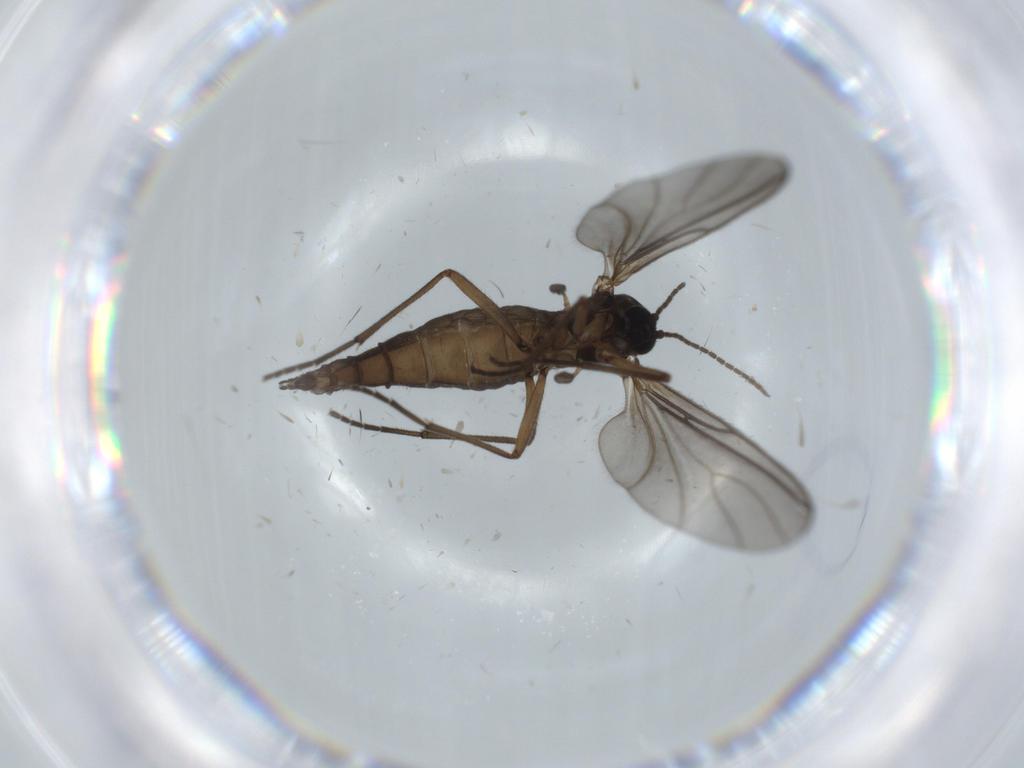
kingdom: Animalia
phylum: Arthropoda
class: Insecta
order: Diptera
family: Sciaridae
